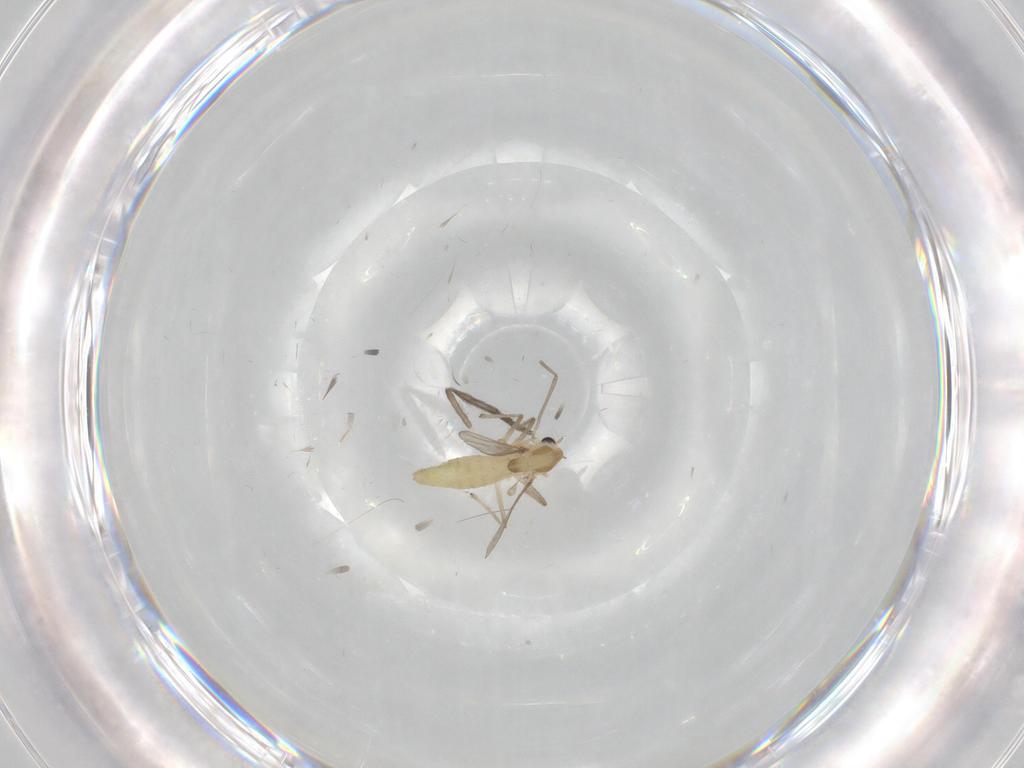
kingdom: Animalia
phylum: Arthropoda
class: Insecta
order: Diptera
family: Chironomidae
